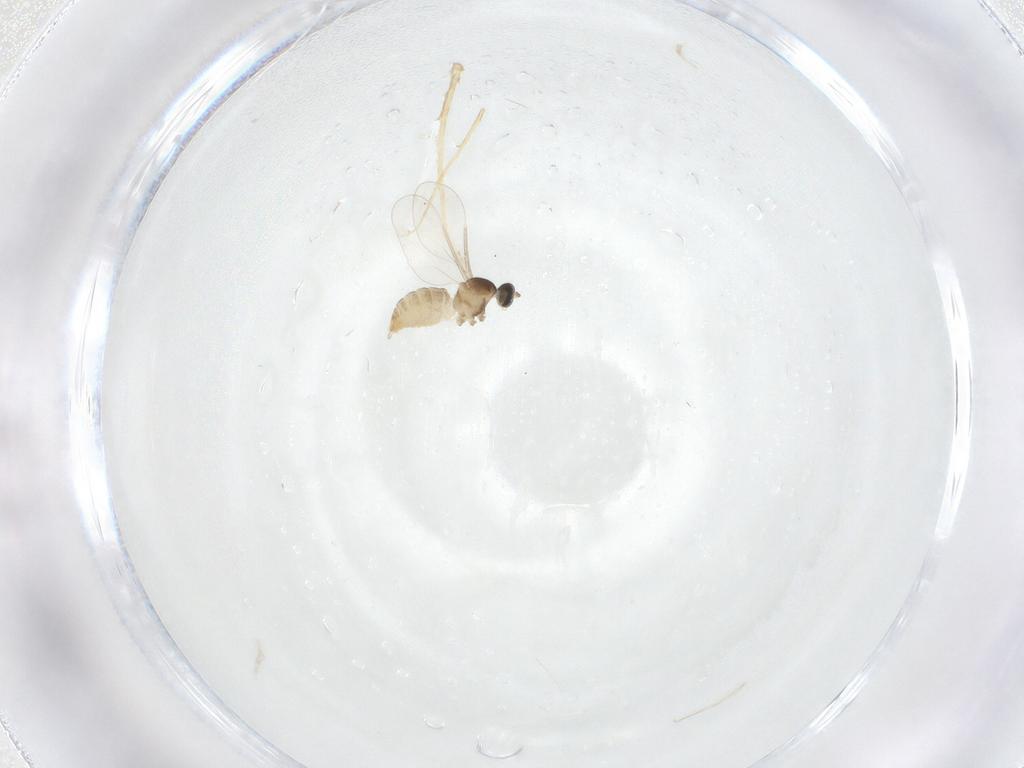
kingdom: Animalia
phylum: Arthropoda
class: Insecta
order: Diptera
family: Cecidomyiidae
